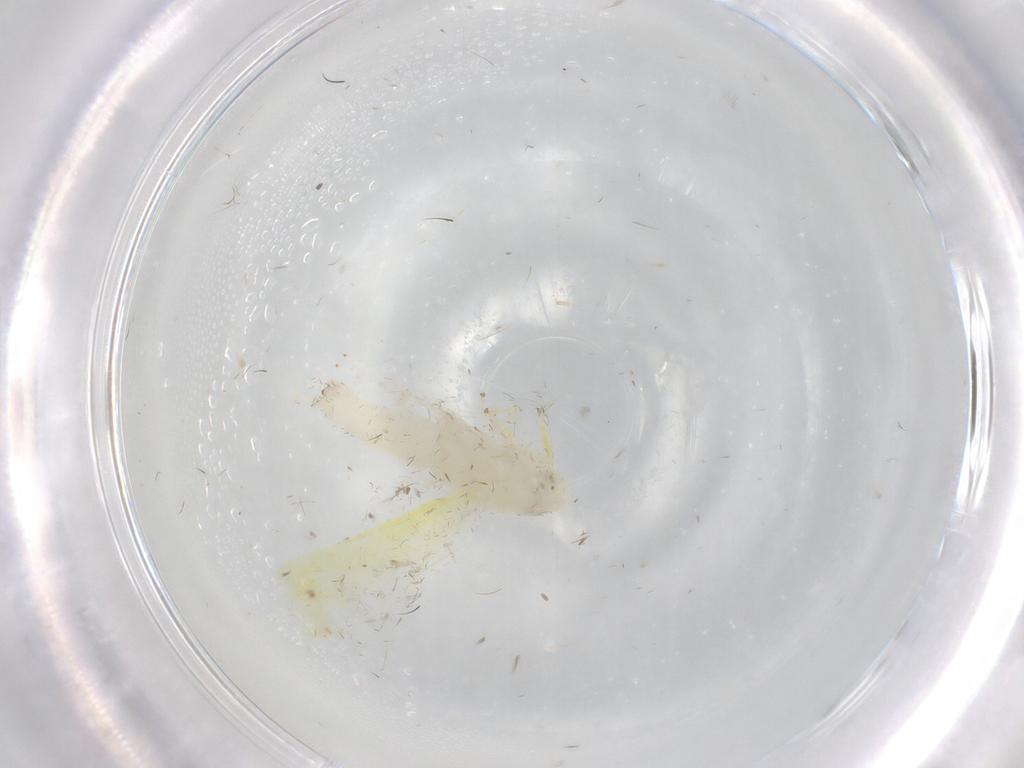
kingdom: Animalia
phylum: Arthropoda
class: Insecta
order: Hemiptera
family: Cicadellidae
